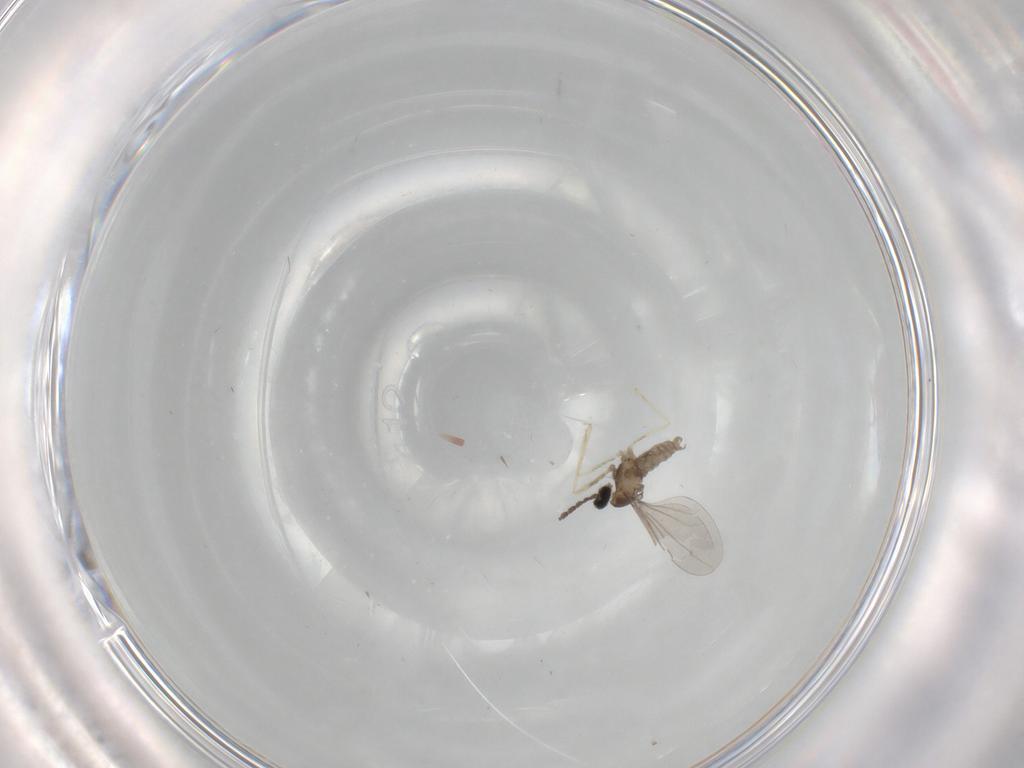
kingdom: Animalia
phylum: Arthropoda
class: Insecta
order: Diptera
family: Cecidomyiidae
